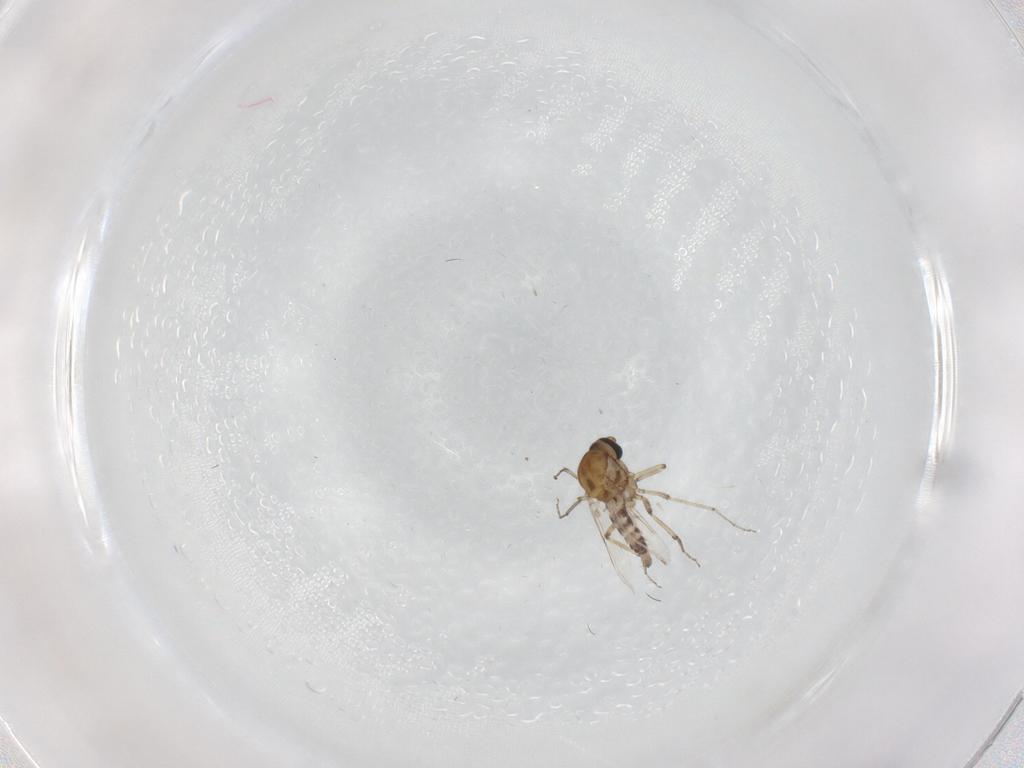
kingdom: Animalia
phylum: Arthropoda
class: Insecta
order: Diptera
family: Ceratopogonidae
